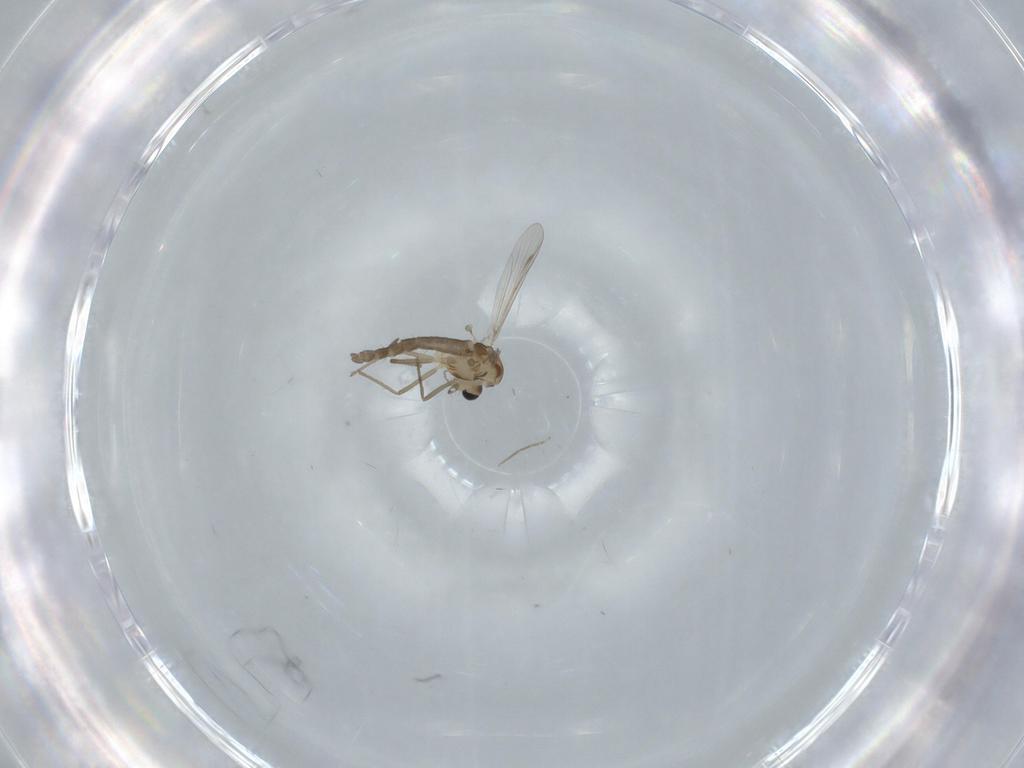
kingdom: Animalia
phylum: Arthropoda
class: Insecta
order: Diptera
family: Chironomidae
